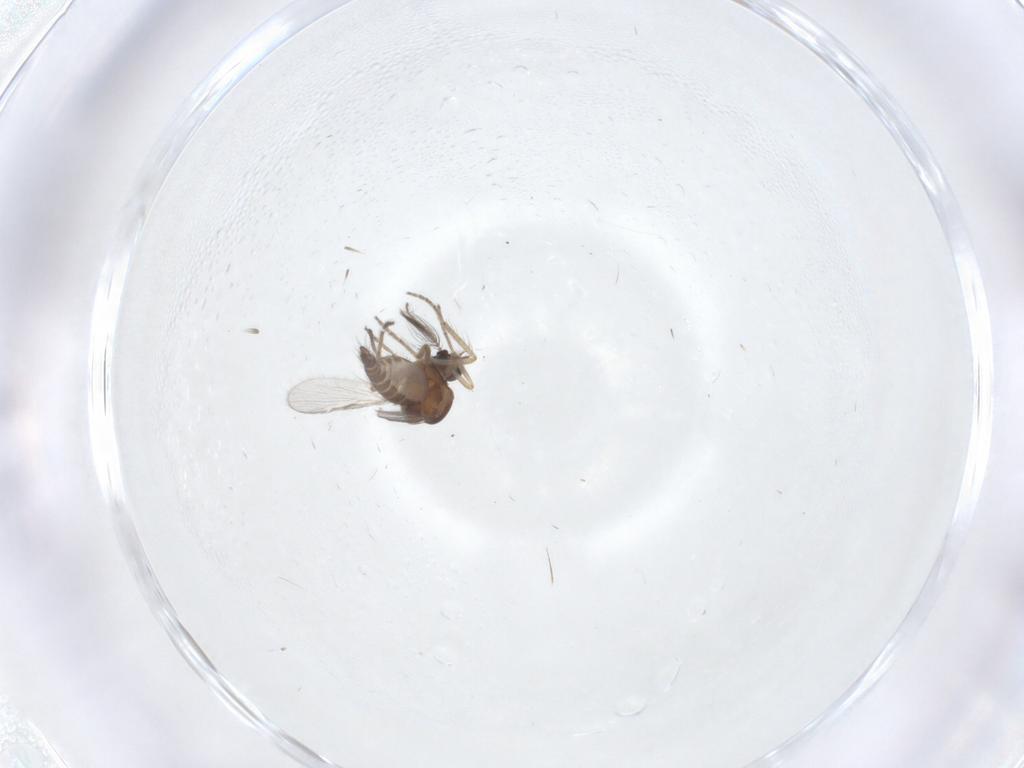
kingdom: Animalia
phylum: Arthropoda
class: Insecta
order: Diptera
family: Ceratopogonidae
